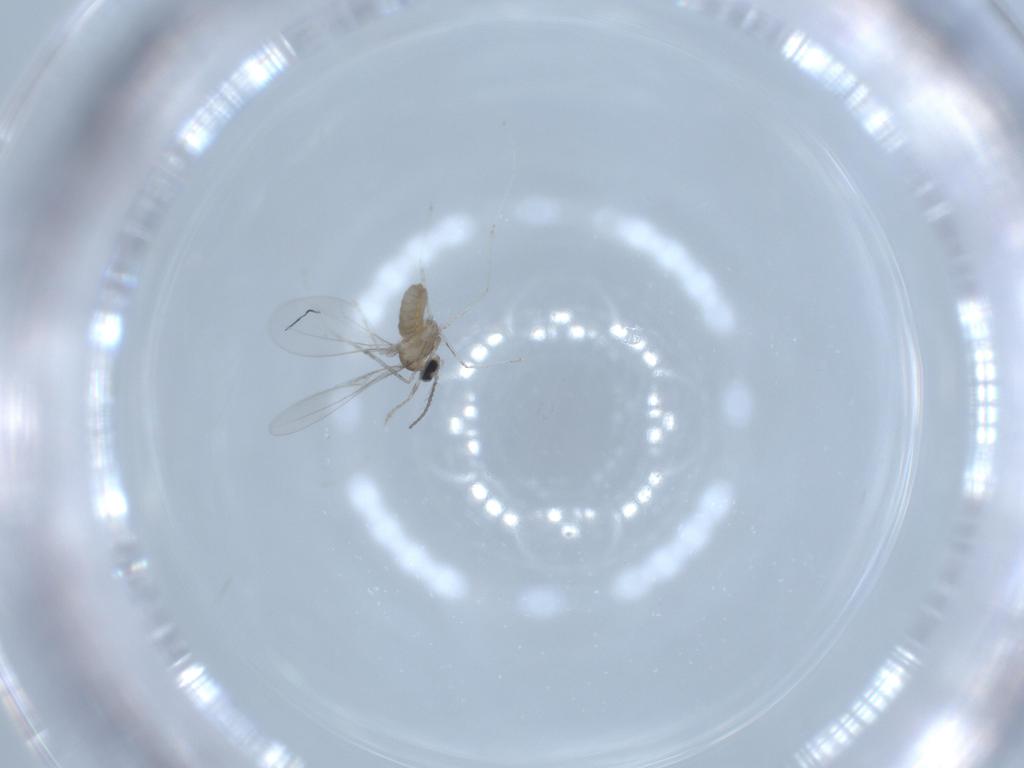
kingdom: Animalia
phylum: Arthropoda
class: Insecta
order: Diptera
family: Cecidomyiidae
